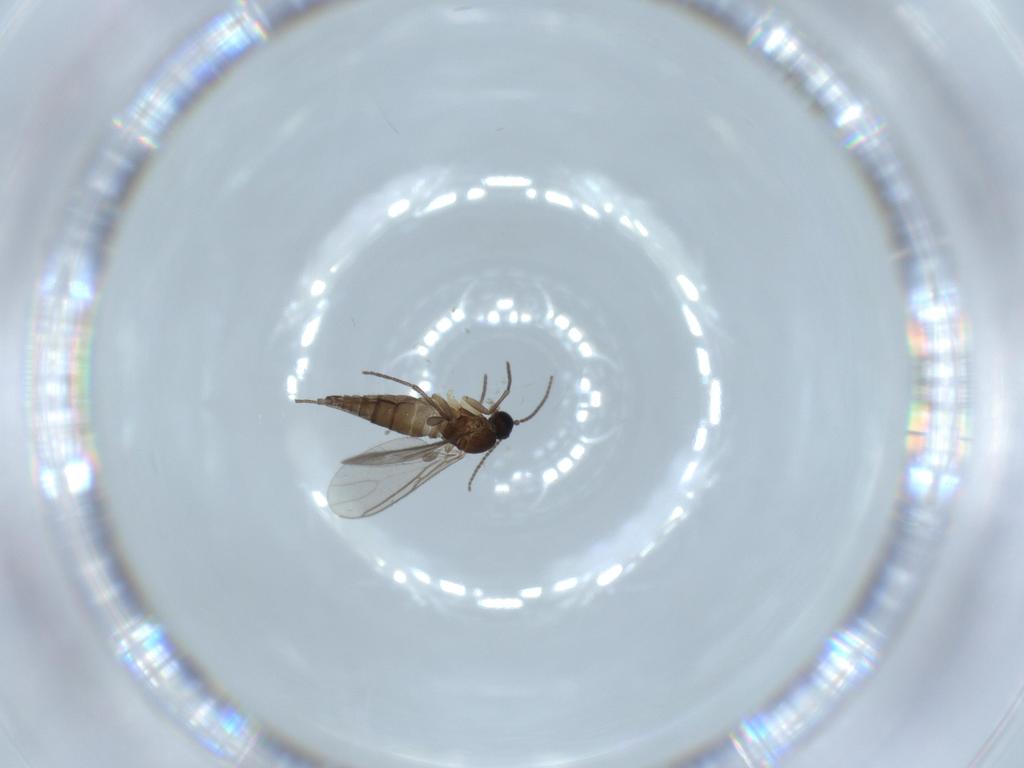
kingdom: Animalia
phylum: Arthropoda
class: Insecta
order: Diptera
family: Sciaridae
